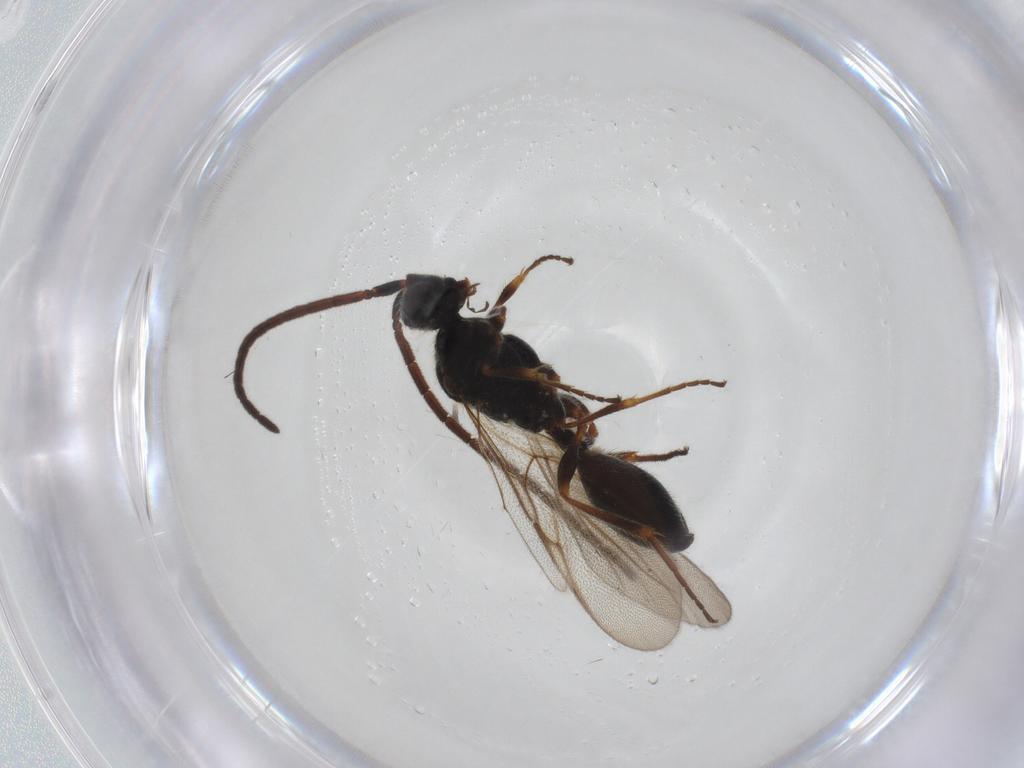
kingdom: Animalia
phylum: Arthropoda
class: Insecta
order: Hymenoptera
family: Diapriidae
